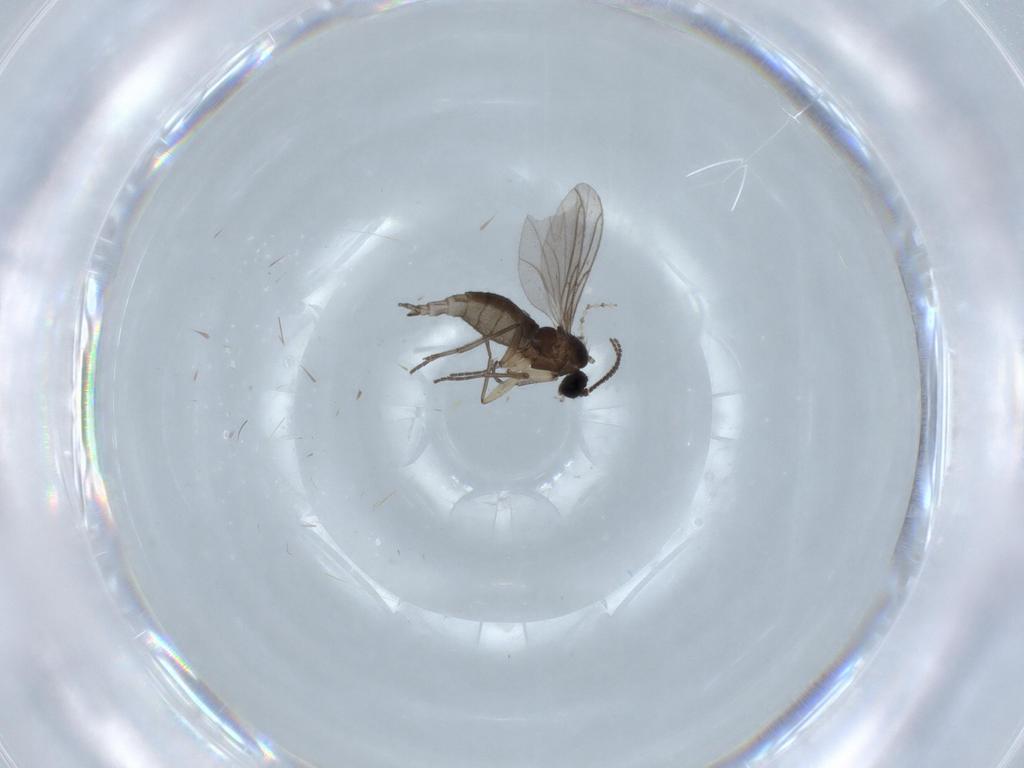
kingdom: Animalia
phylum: Arthropoda
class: Insecta
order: Diptera
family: Sciaridae
